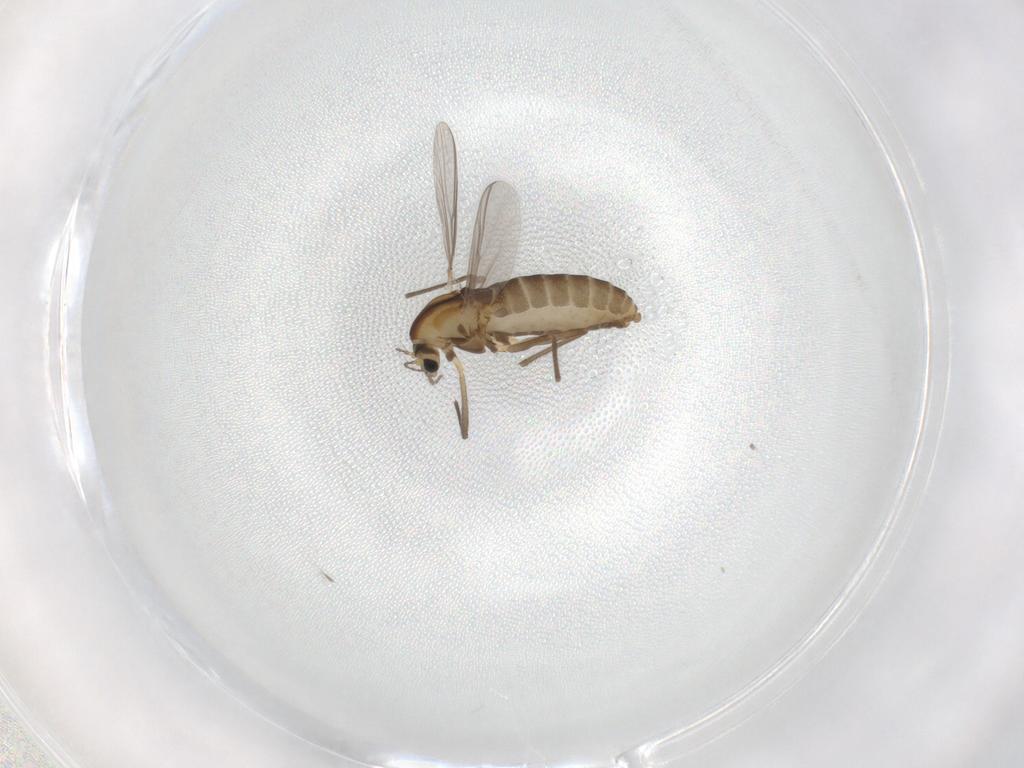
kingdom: Animalia
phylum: Arthropoda
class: Insecta
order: Diptera
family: Chironomidae
